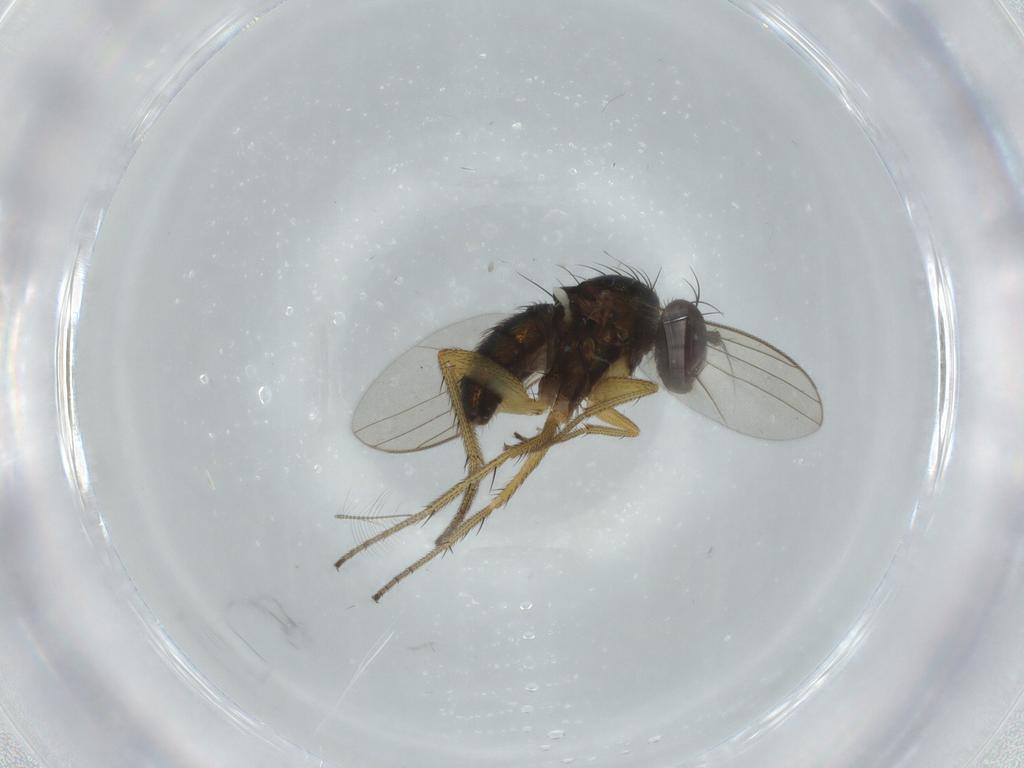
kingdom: Animalia
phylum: Arthropoda
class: Insecta
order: Diptera
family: Dolichopodidae
